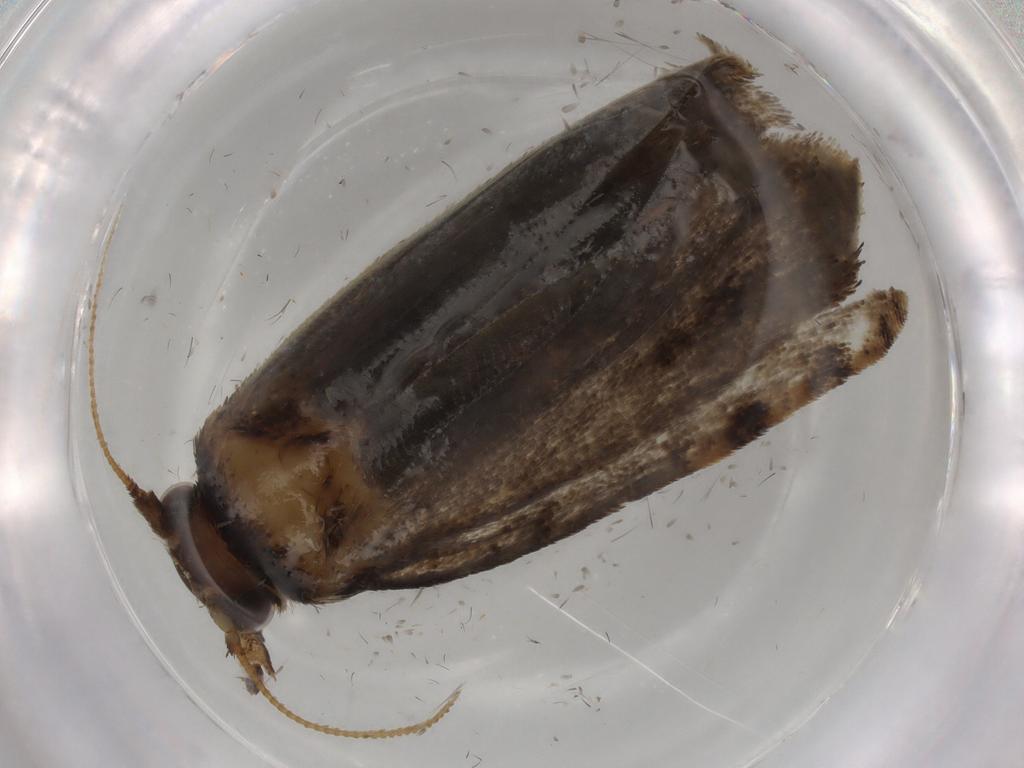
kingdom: Animalia
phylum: Arthropoda
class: Insecta
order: Lepidoptera
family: Tineidae
